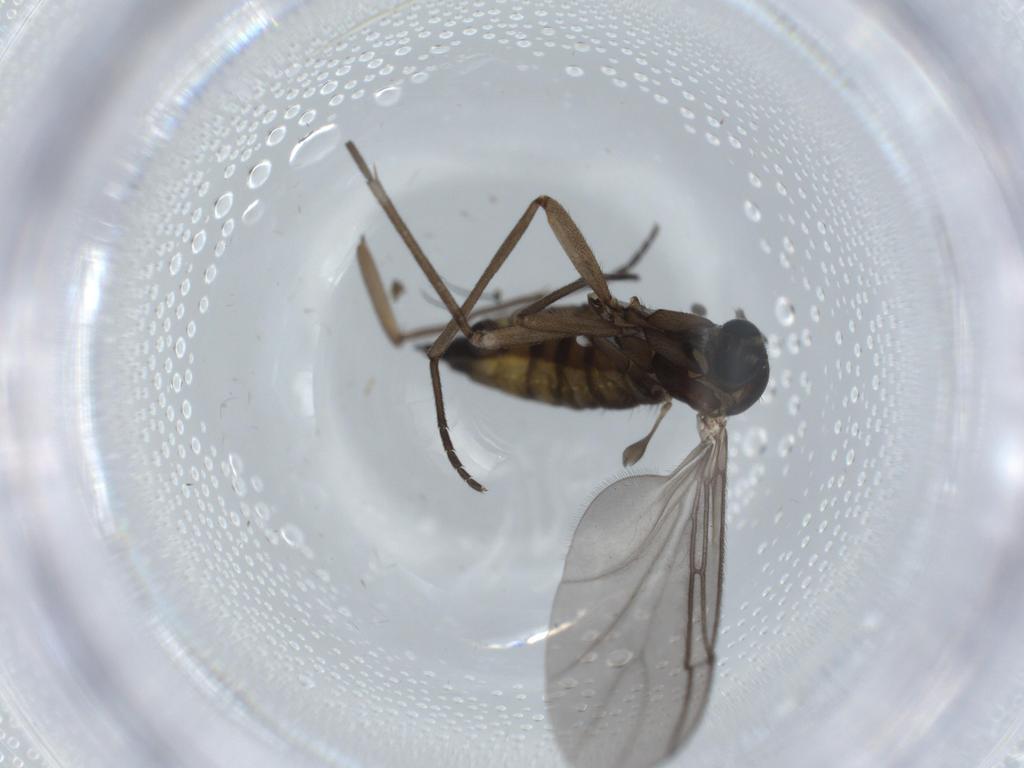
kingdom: Animalia
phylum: Arthropoda
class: Insecta
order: Diptera
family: Sciaridae
